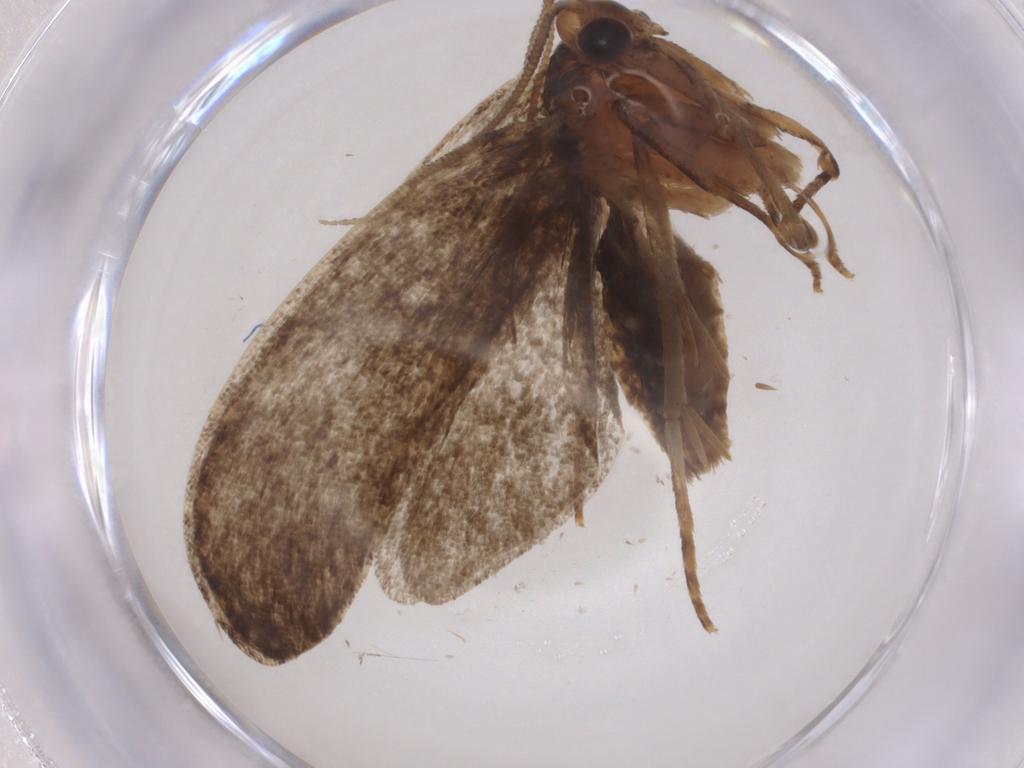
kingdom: Animalia
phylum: Arthropoda
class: Insecta
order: Lepidoptera
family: Tineidae
